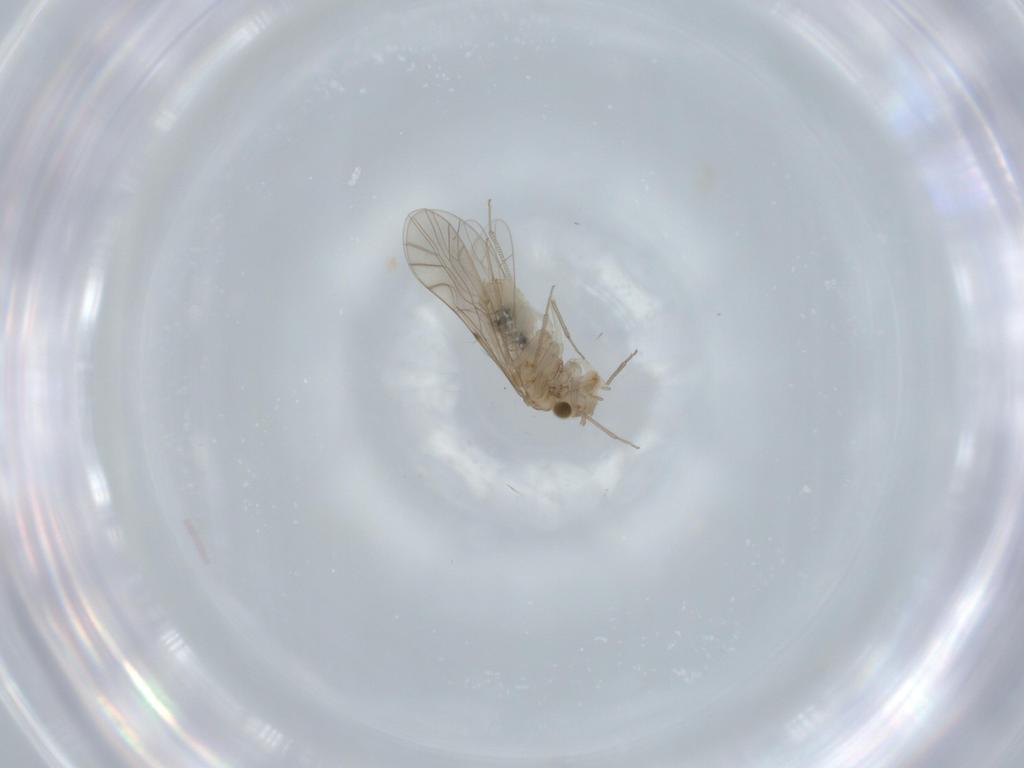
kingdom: Animalia
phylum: Arthropoda
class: Insecta
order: Psocodea
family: Lachesillidae
